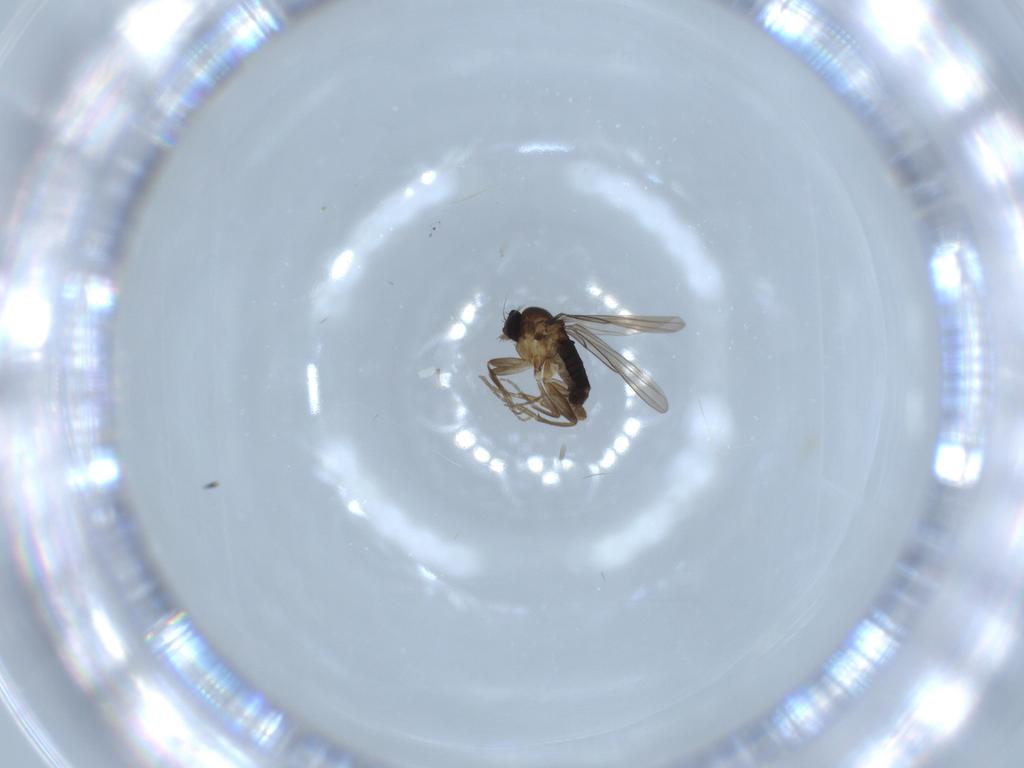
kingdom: Animalia
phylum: Arthropoda
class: Insecta
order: Diptera
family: Phoridae
